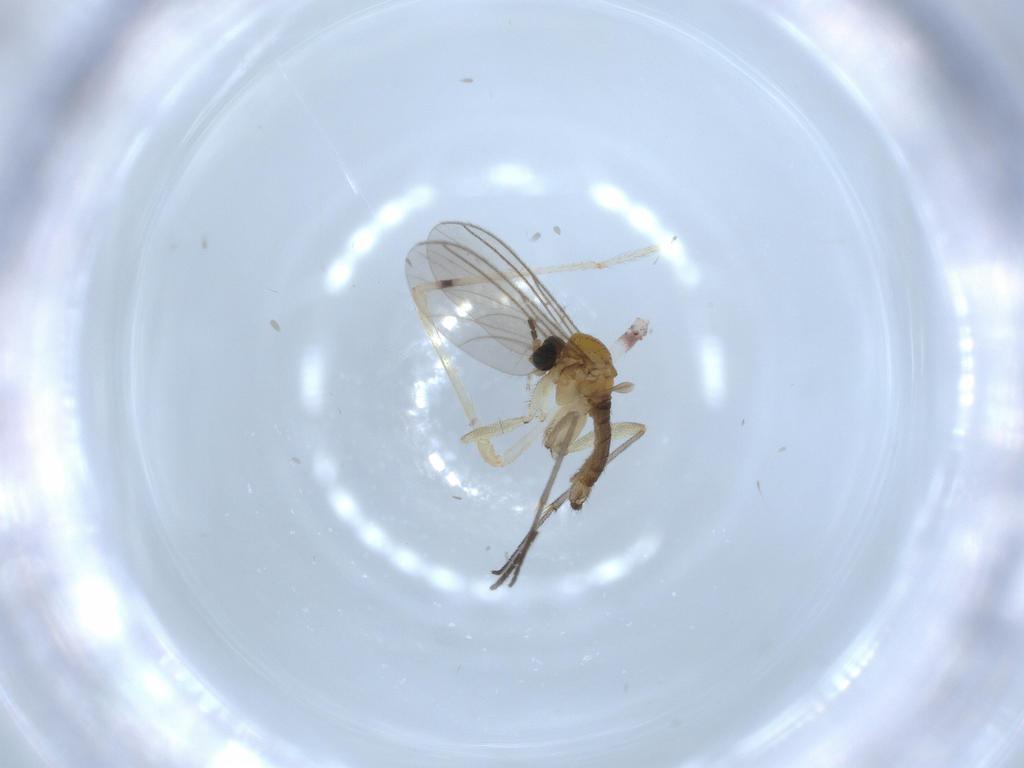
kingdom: Animalia
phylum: Arthropoda
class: Insecta
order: Diptera
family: Sciaridae
